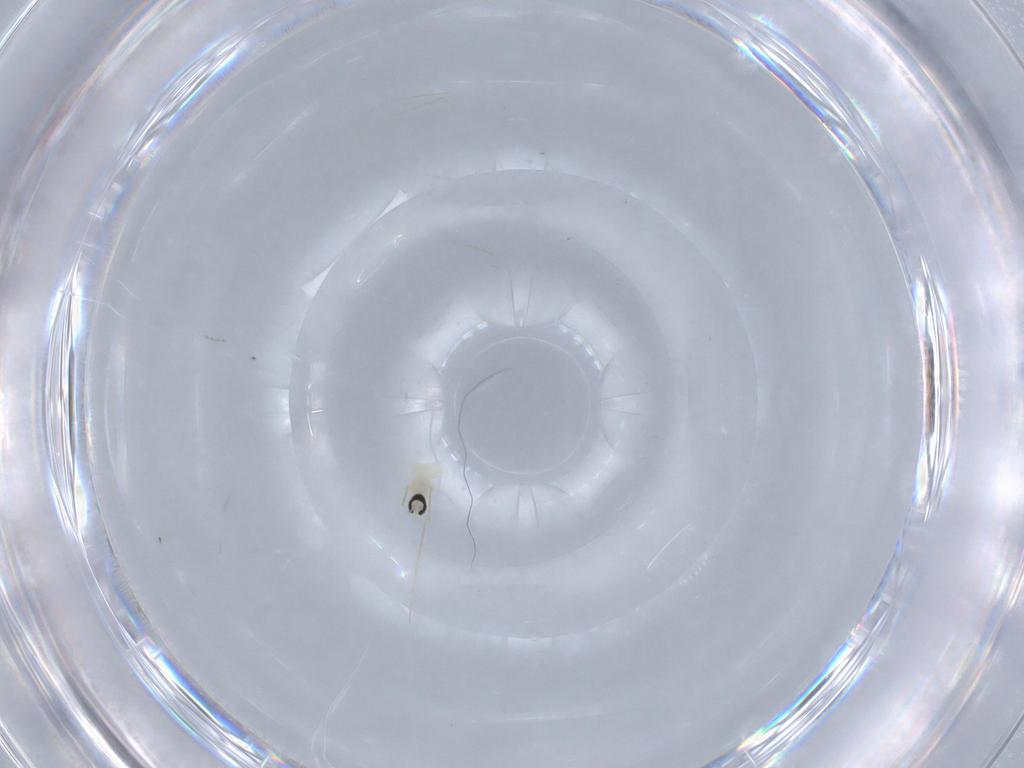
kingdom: Animalia
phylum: Arthropoda
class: Insecta
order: Diptera
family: Cecidomyiidae
